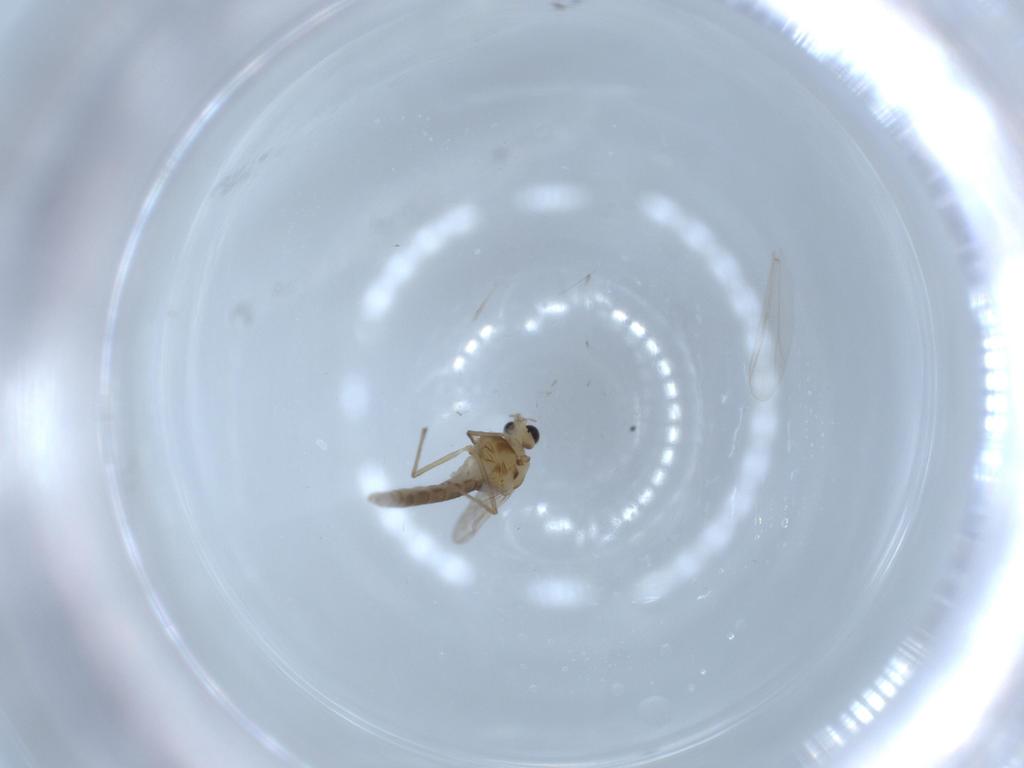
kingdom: Animalia
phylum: Arthropoda
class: Insecta
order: Diptera
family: Chironomidae
